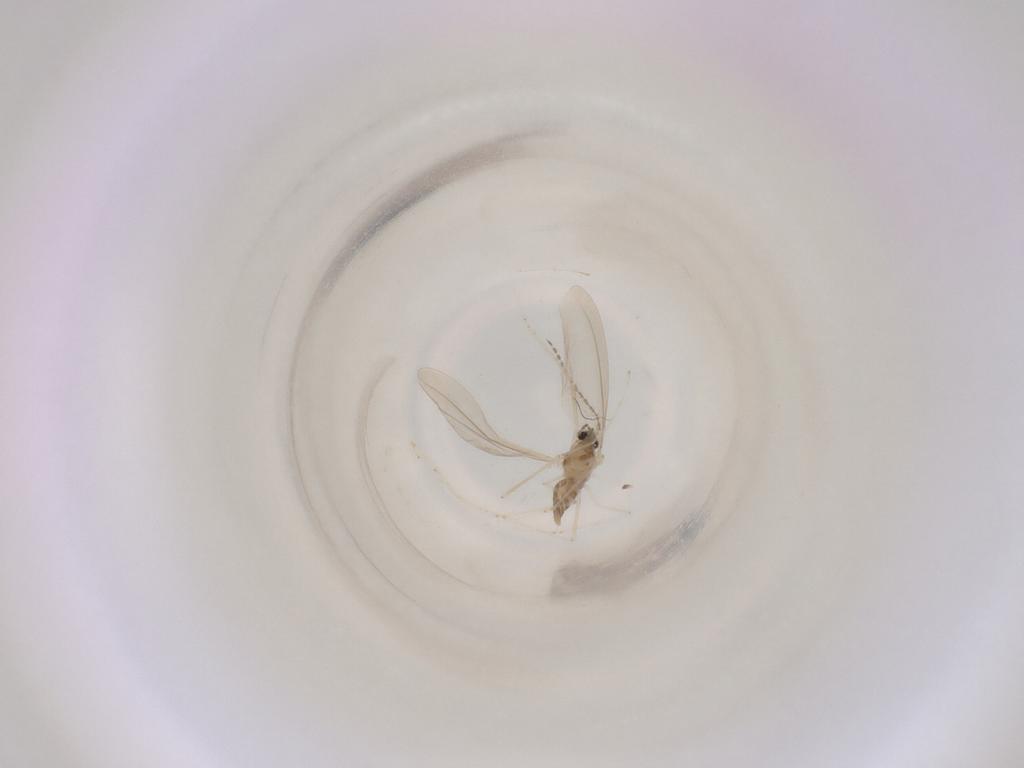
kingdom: Animalia
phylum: Arthropoda
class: Insecta
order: Diptera
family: Cecidomyiidae
